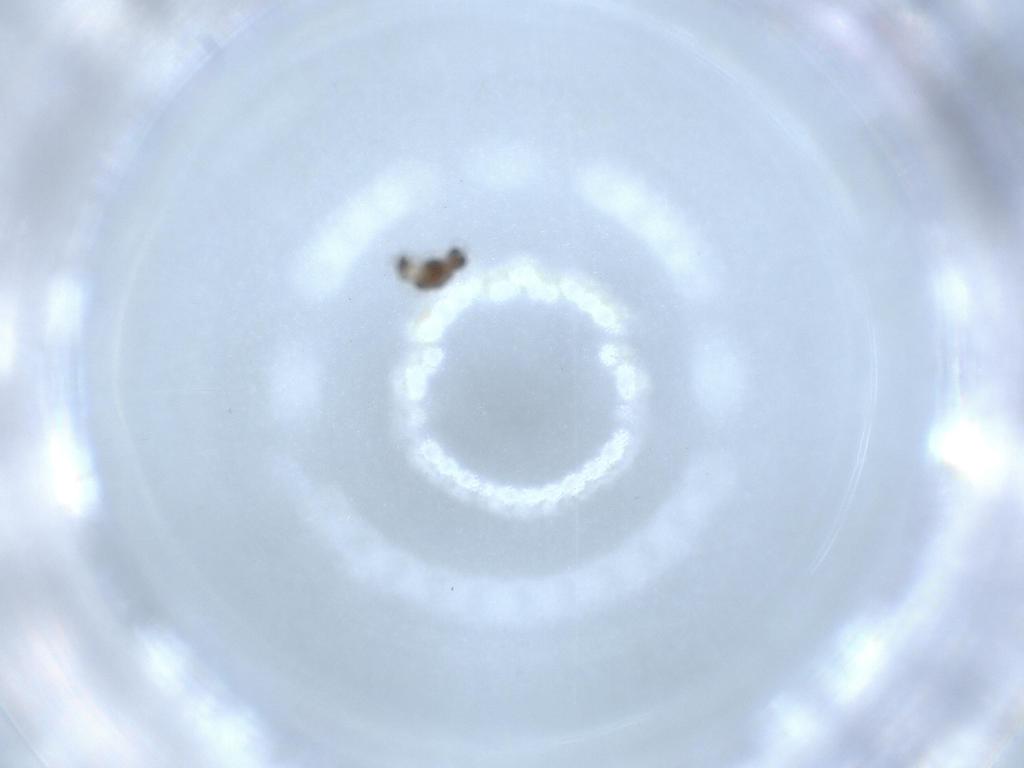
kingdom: Animalia
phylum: Arthropoda
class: Insecta
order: Diptera
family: Chironomidae
